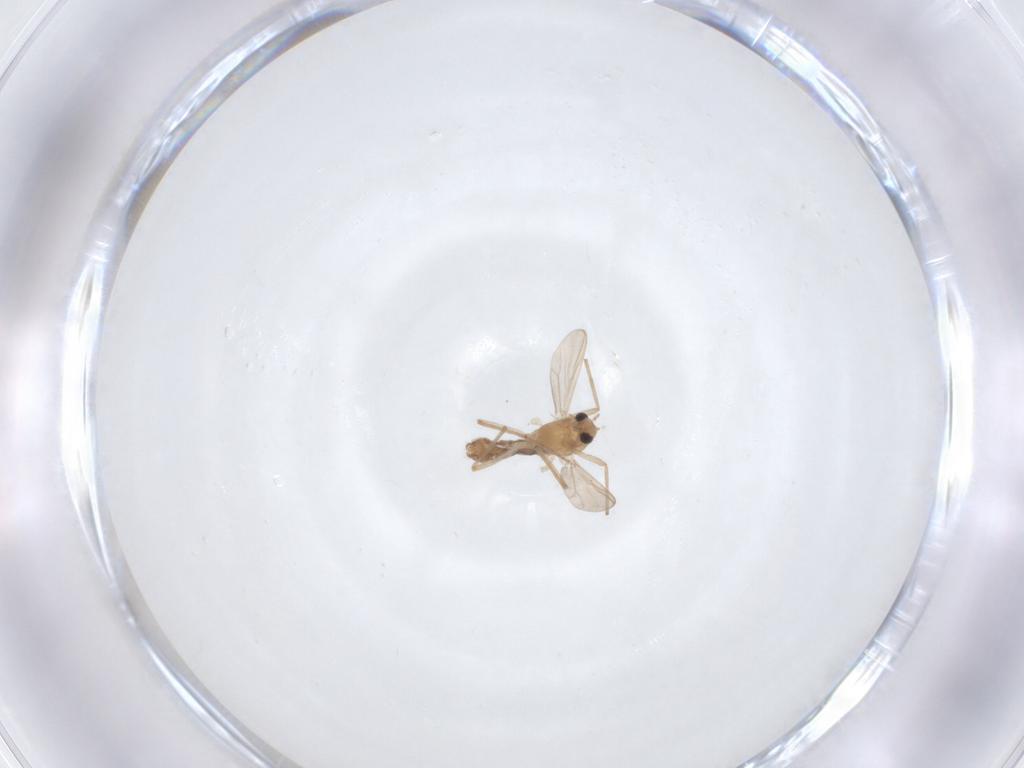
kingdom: Animalia
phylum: Arthropoda
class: Insecta
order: Diptera
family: Chironomidae
